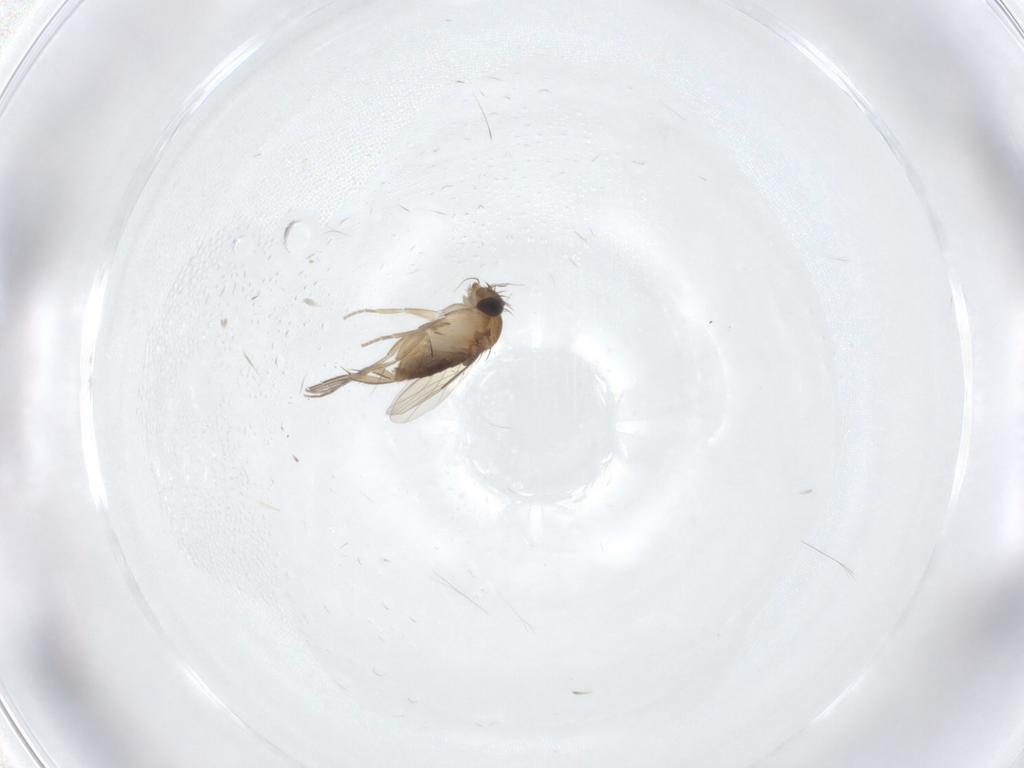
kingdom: Animalia
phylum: Arthropoda
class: Insecta
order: Diptera
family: Phoridae
